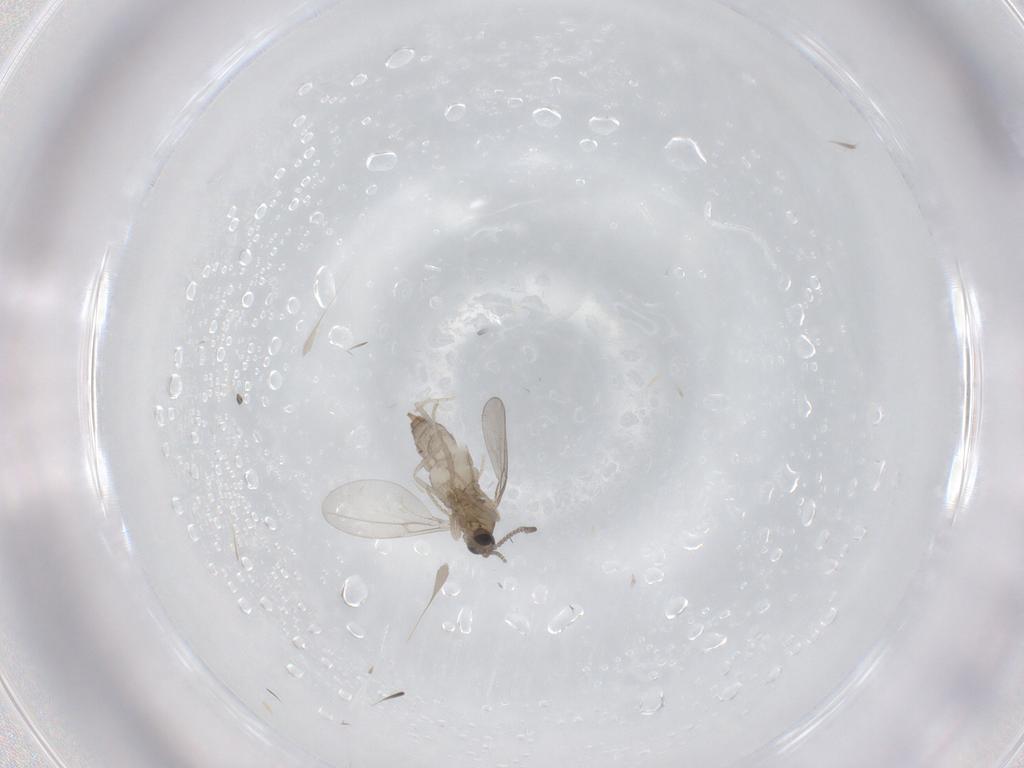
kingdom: Animalia
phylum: Arthropoda
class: Insecta
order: Diptera
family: Cecidomyiidae
